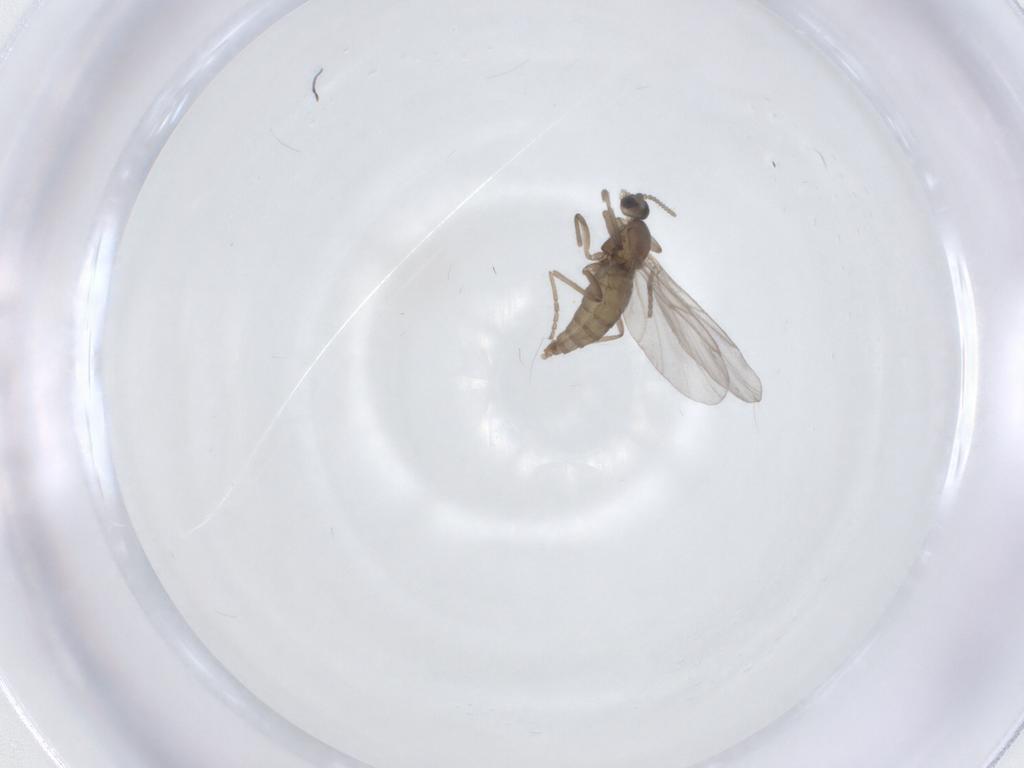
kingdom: Animalia
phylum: Arthropoda
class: Insecta
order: Diptera
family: Cecidomyiidae
